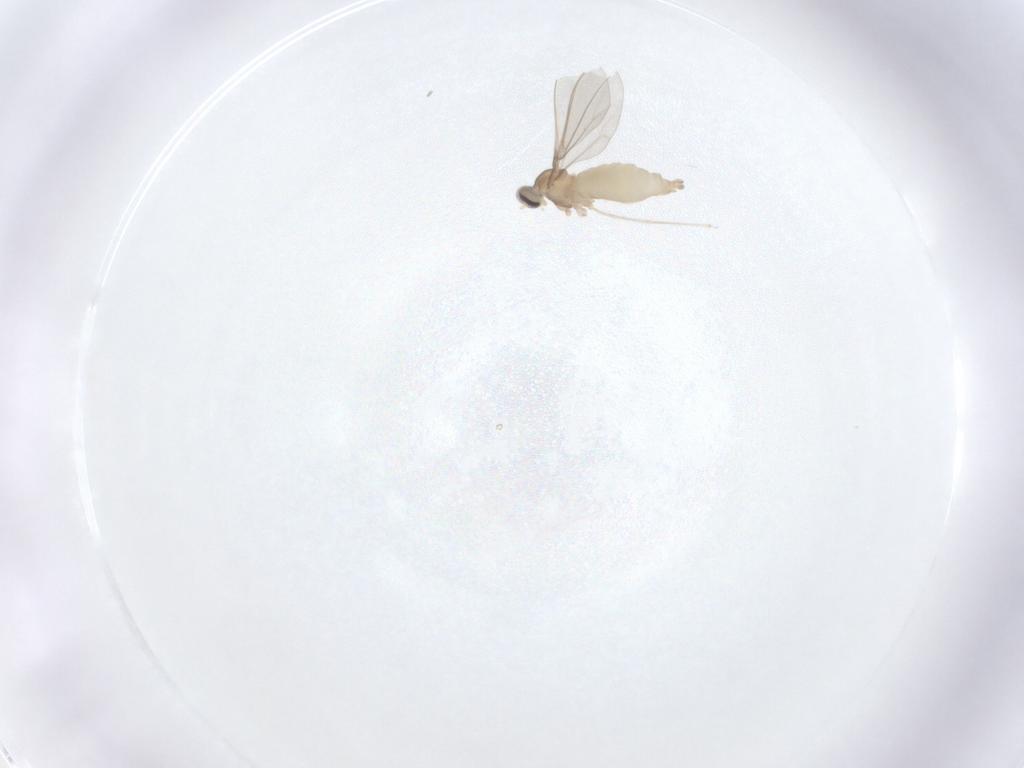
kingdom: Animalia
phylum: Arthropoda
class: Insecta
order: Diptera
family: Cecidomyiidae
